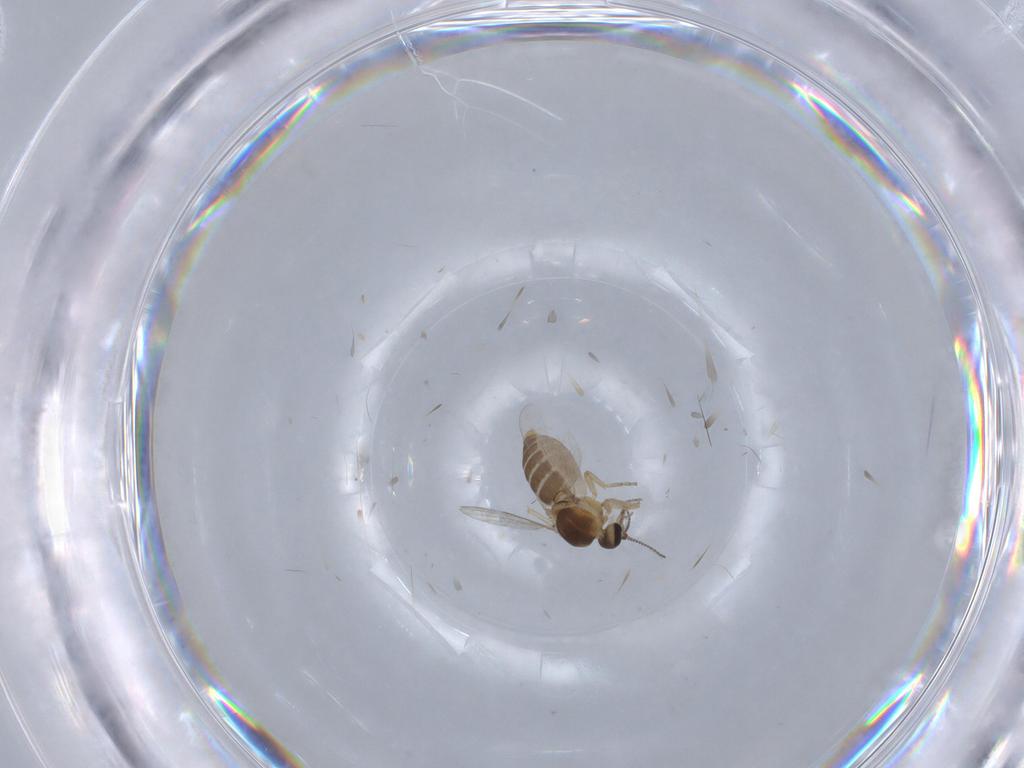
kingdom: Animalia
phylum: Arthropoda
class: Insecta
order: Diptera
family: Ceratopogonidae
